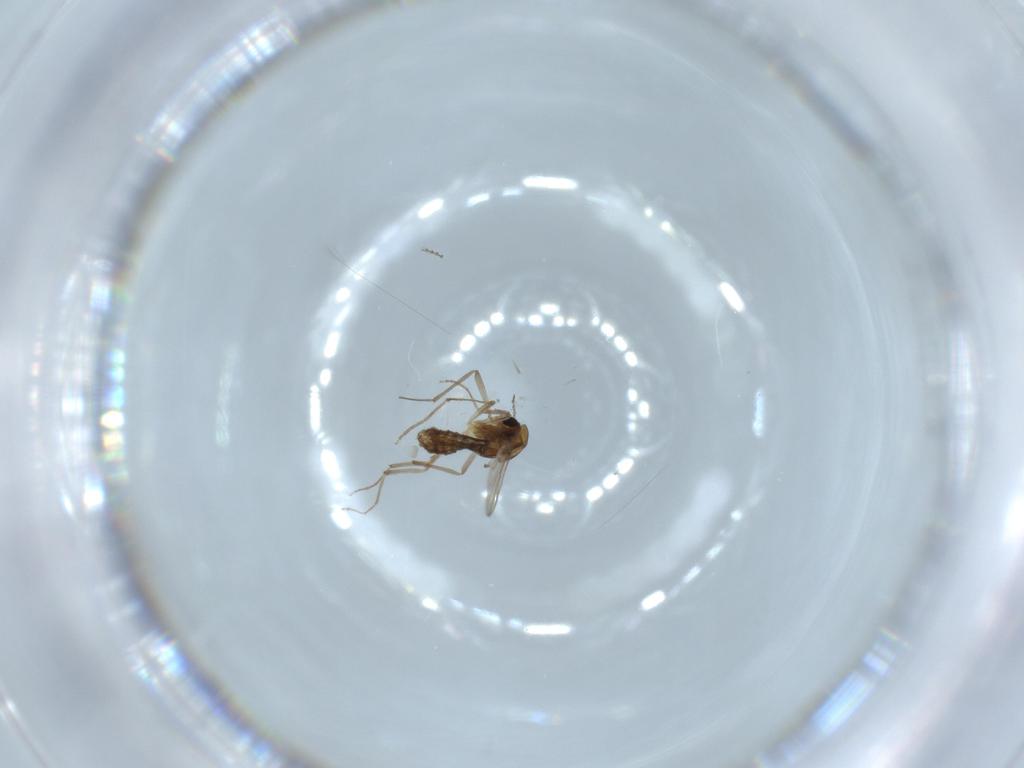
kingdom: Animalia
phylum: Arthropoda
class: Insecta
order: Diptera
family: Chironomidae
